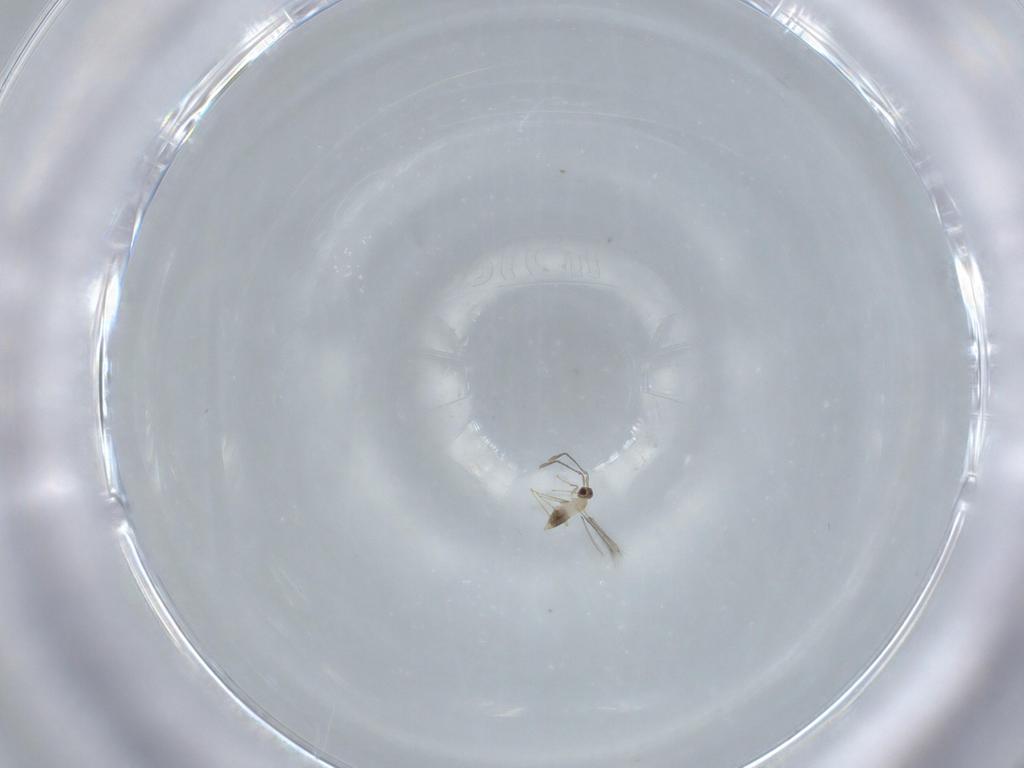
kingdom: Animalia
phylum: Arthropoda
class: Insecta
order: Hymenoptera
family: Mymaridae
